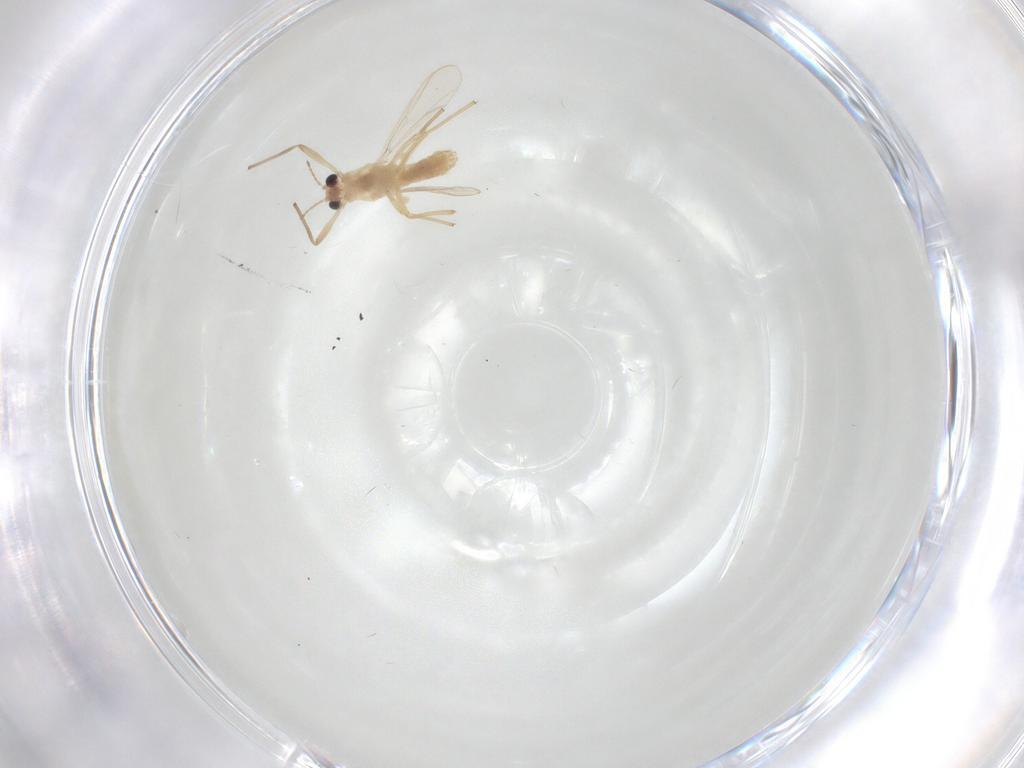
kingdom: Animalia
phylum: Arthropoda
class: Insecta
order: Diptera
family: Chironomidae
